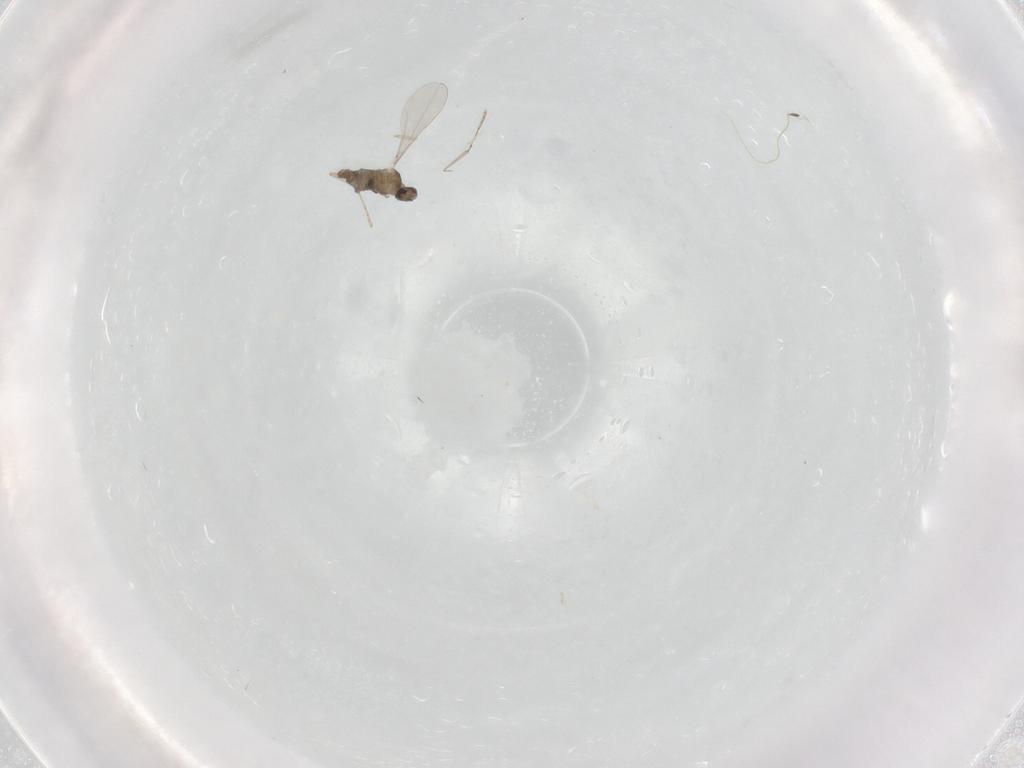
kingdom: Animalia
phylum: Arthropoda
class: Insecta
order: Diptera
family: Cecidomyiidae
